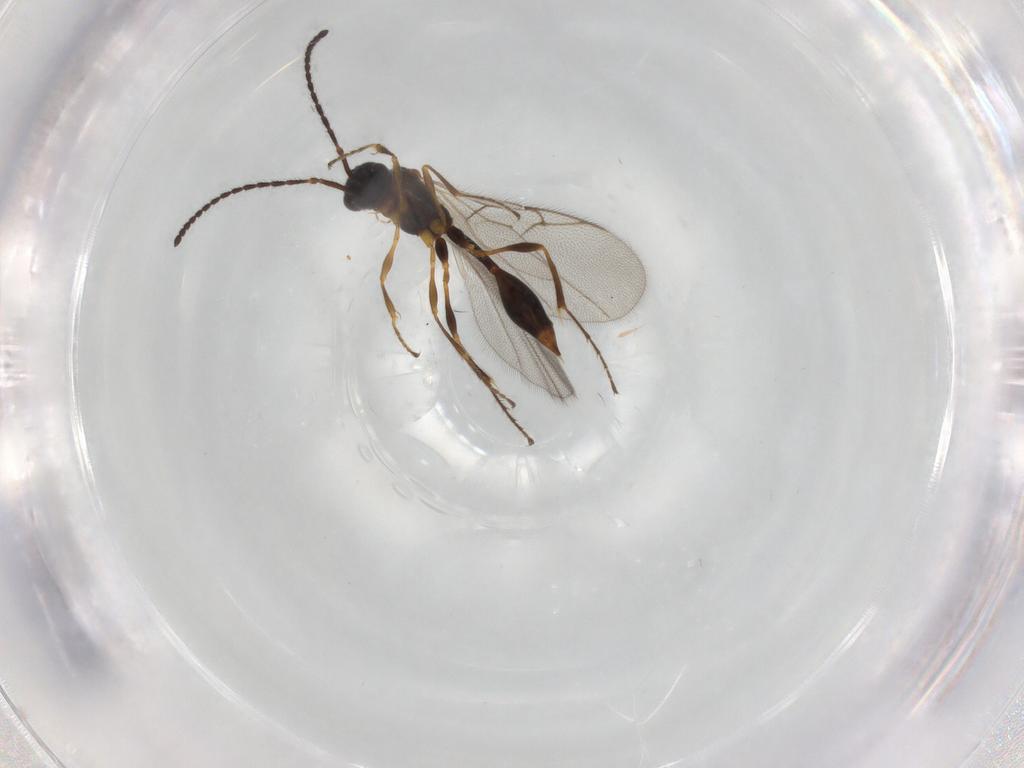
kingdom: Animalia
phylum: Arthropoda
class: Insecta
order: Hymenoptera
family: Diapriidae
